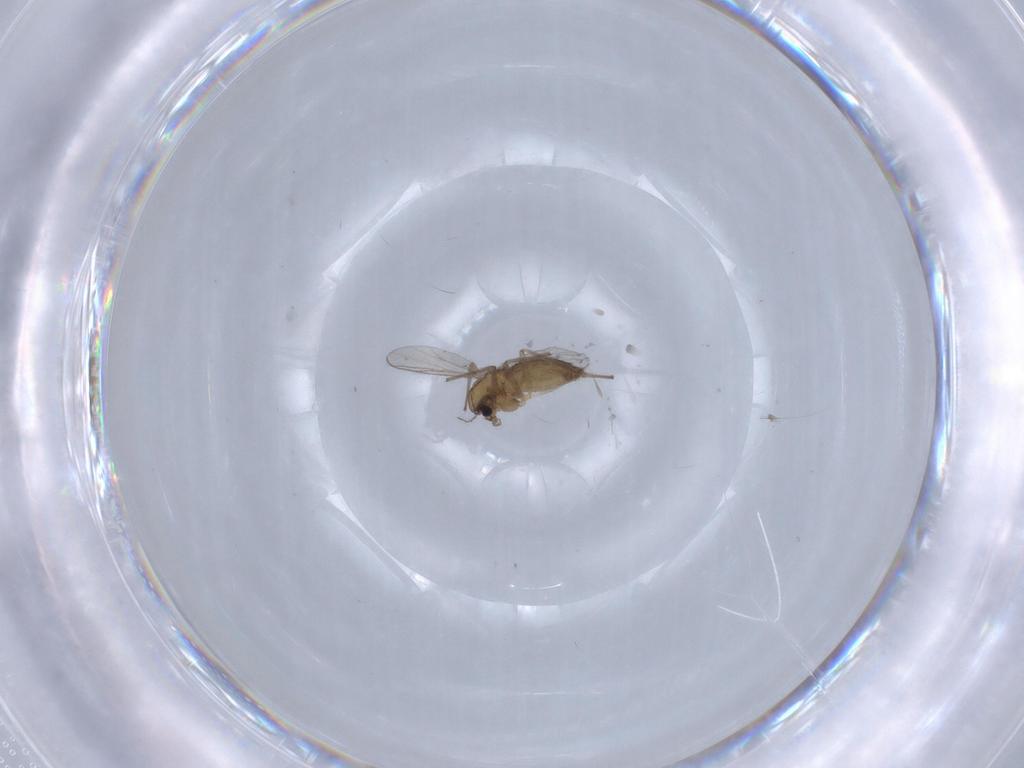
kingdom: Animalia
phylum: Arthropoda
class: Insecta
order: Diptera
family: Chironomidae
